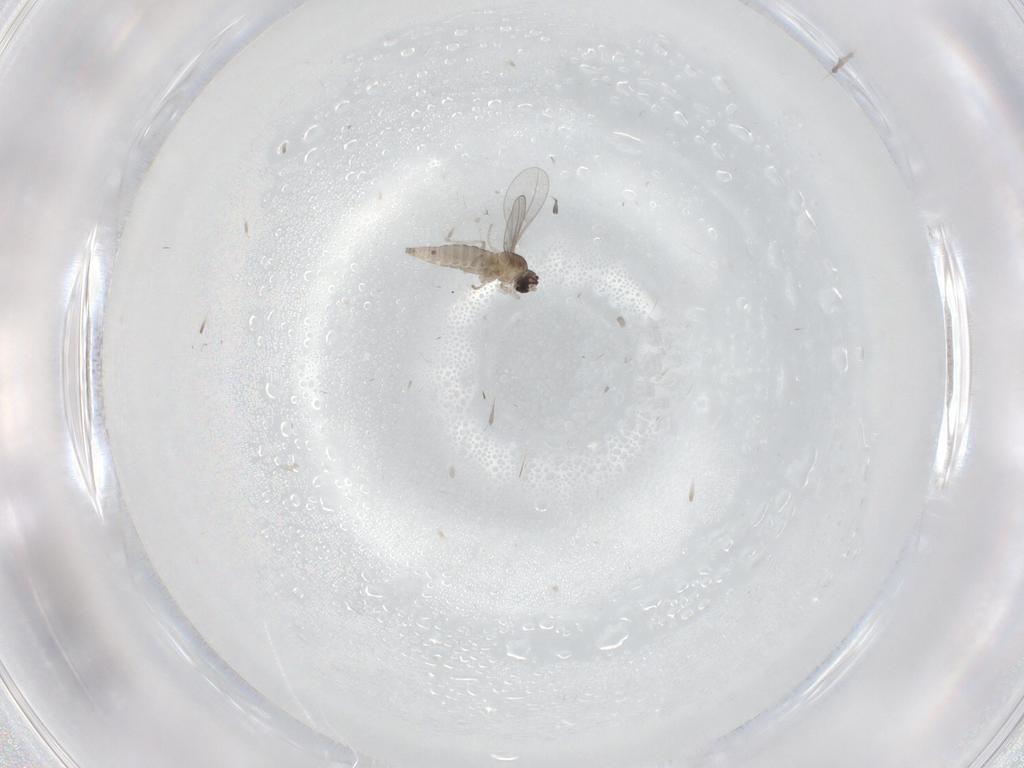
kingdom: Animalia
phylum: Arthropoda
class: Insecta
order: Diptera
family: Cecidomyiidae
